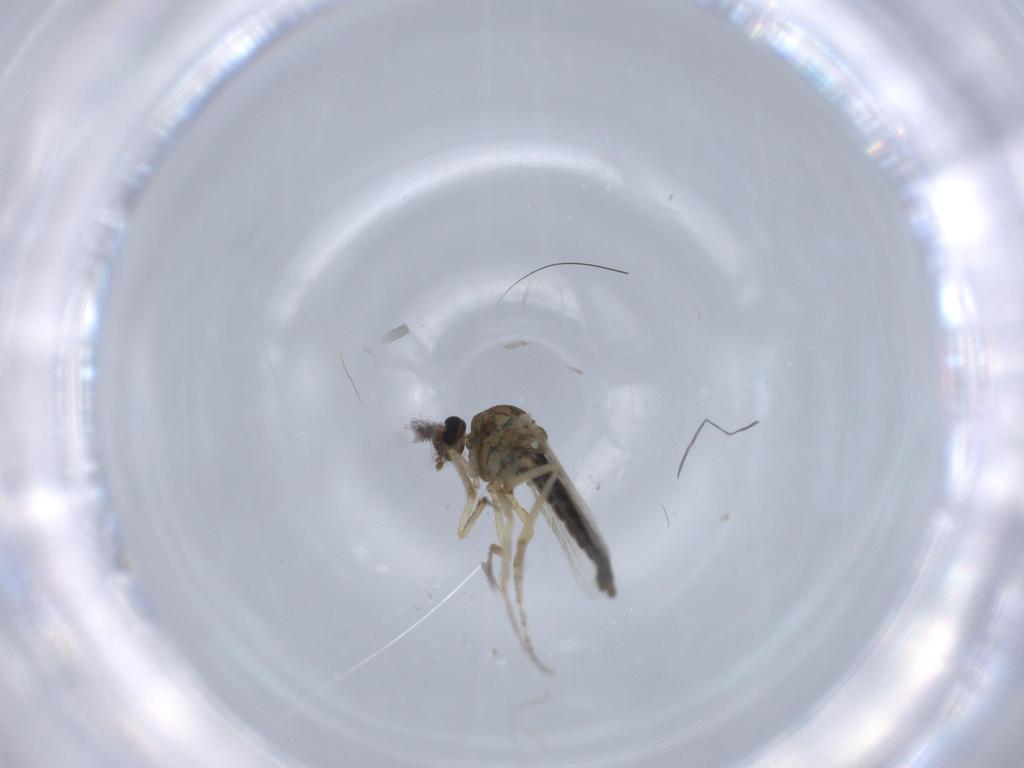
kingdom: Animalia
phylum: Arthropoda
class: Insecta
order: Diptera
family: Ceratopogonidae
